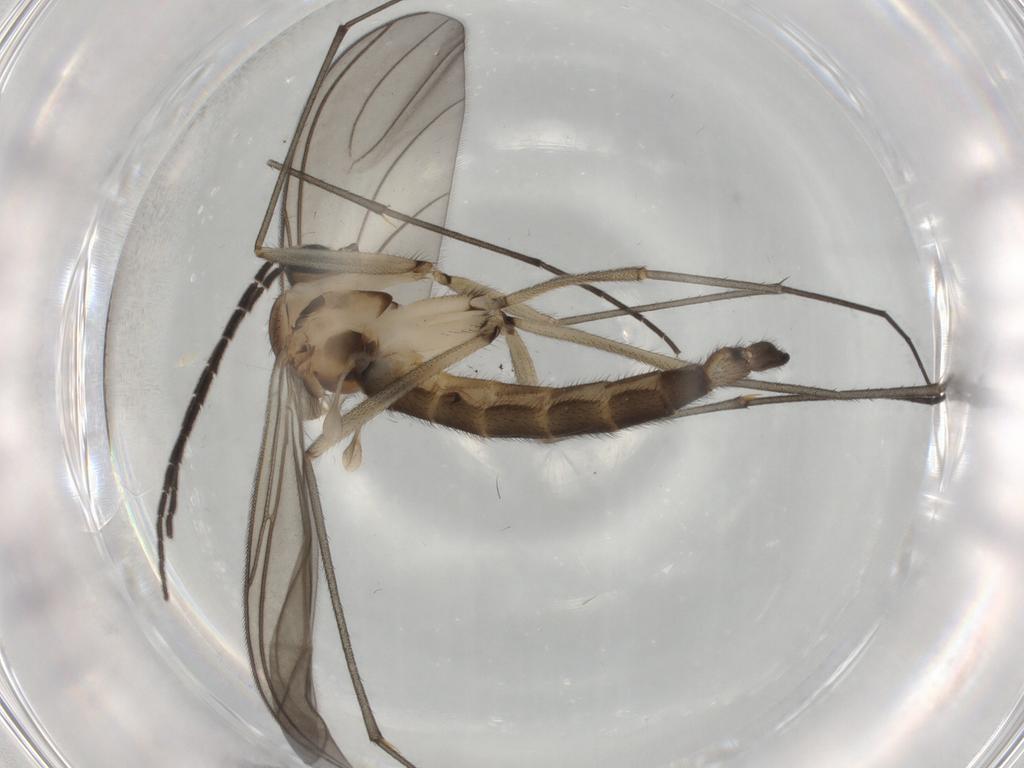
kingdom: Animalia
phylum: Arthropoda
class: Insecta
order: Diptera
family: Sciaridae
